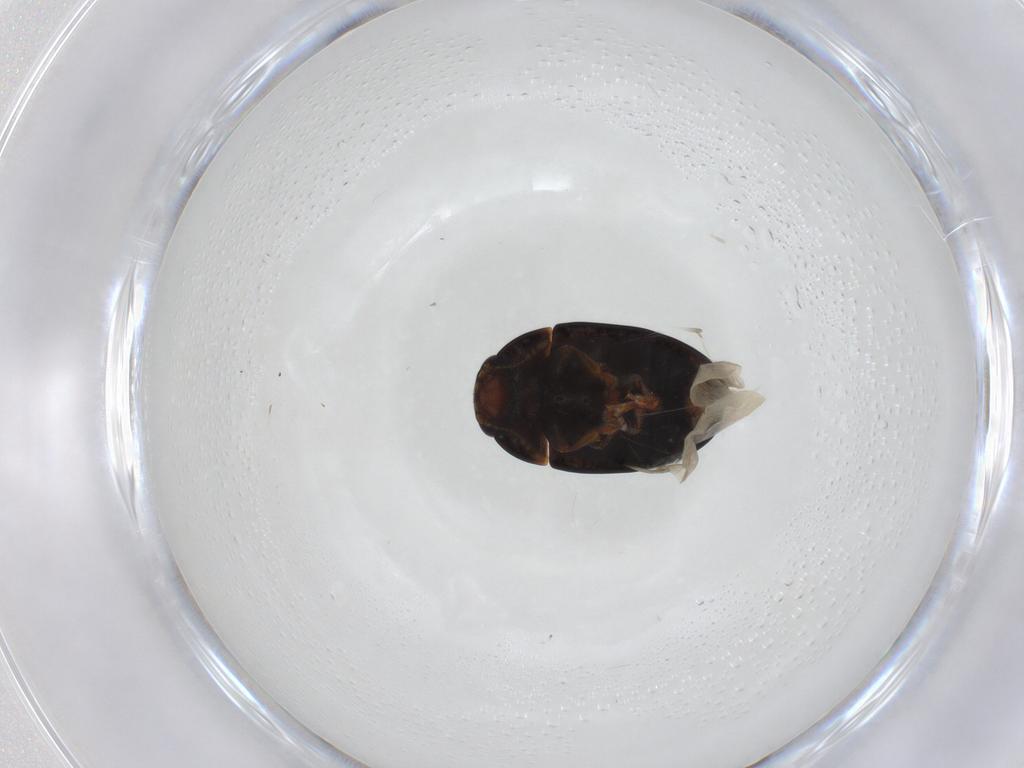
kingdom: Animalia
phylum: Arthropoda
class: Insecta
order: Coleoptera
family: Phalacridae
